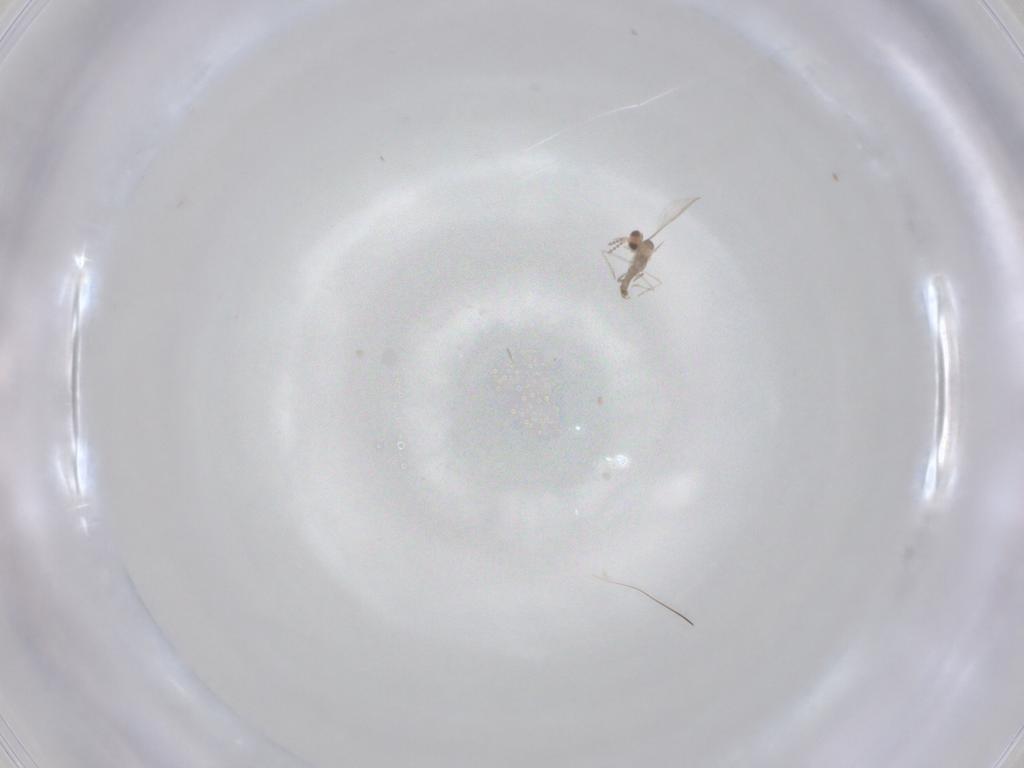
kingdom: Animalia
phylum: Arthropoda
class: Insecta
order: Diptera
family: Cecidomyiidae
